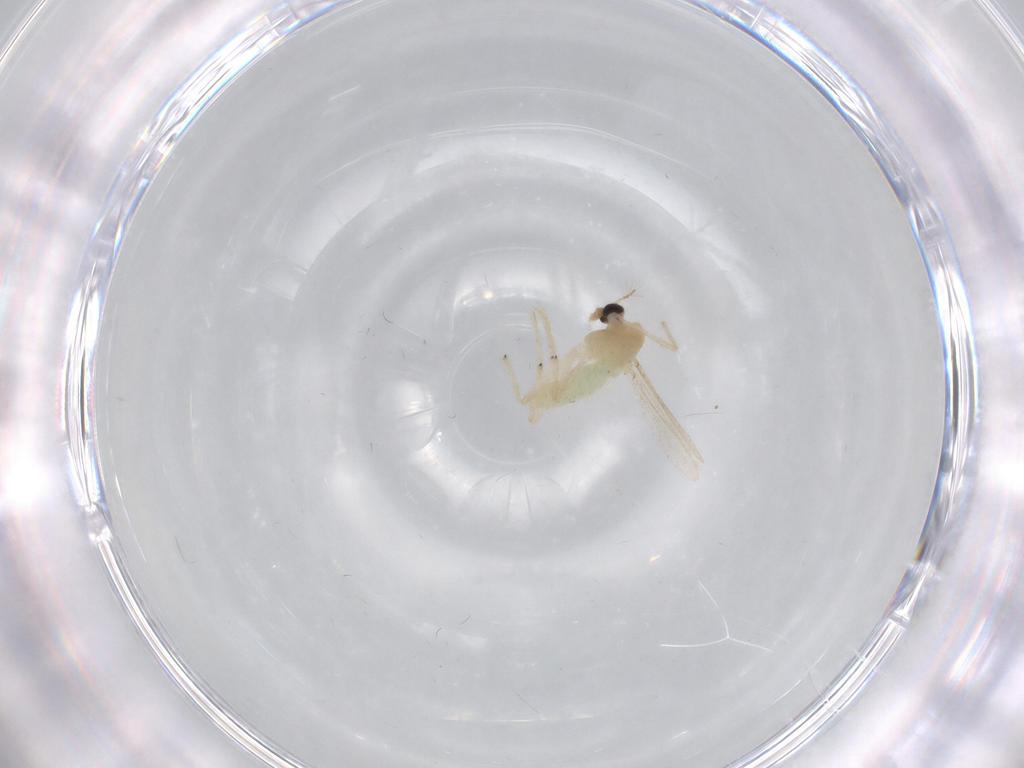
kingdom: Animalia
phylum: Arthropoda
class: Insecta
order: Diptera
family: Chironomidae
